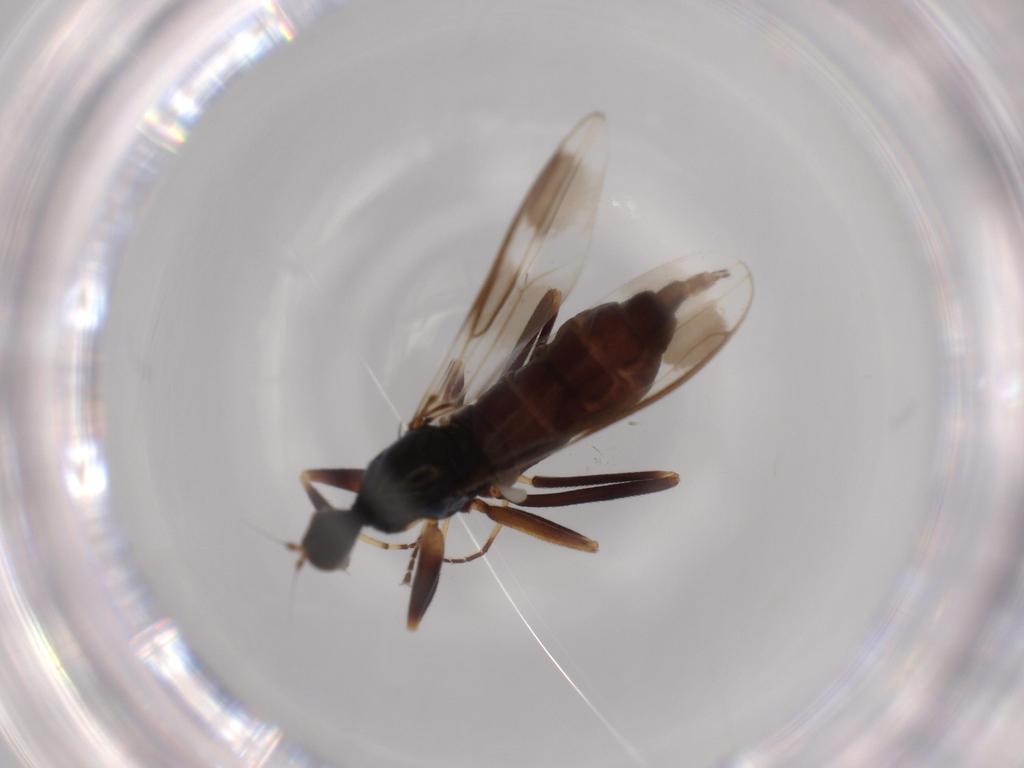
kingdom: Animalia
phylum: Arthropoda
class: Insecta
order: Diptera
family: Hybotidae
